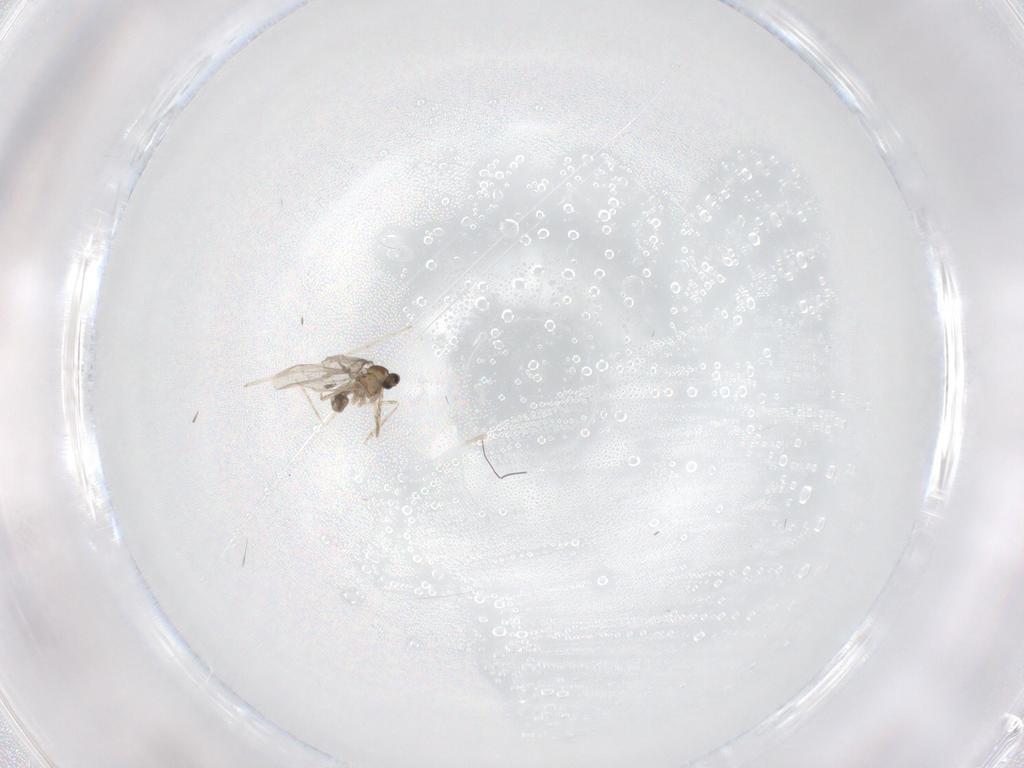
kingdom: Animalia
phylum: Arthropoda
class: Insecta
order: Diptera
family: Cecidomyiidae
